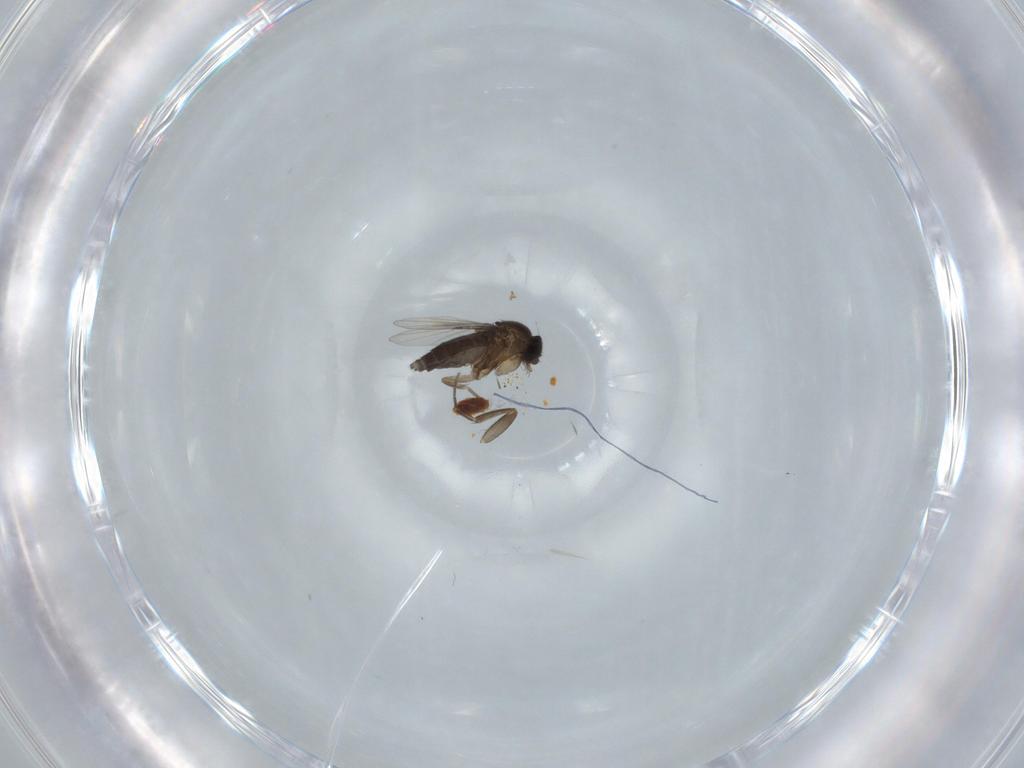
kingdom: Animalia
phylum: Arthropoda
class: Insecta
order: Diptera
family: Phoridae
